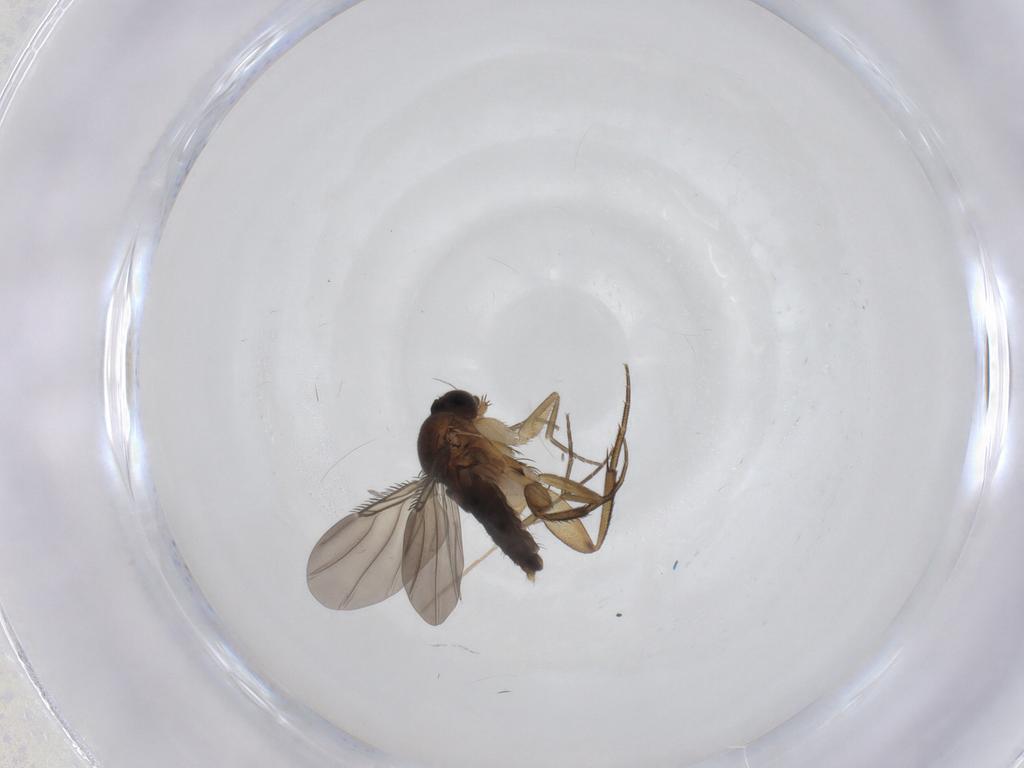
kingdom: Animalia
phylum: Arthropoda
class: Insecta
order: Diptera
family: Phoridae
